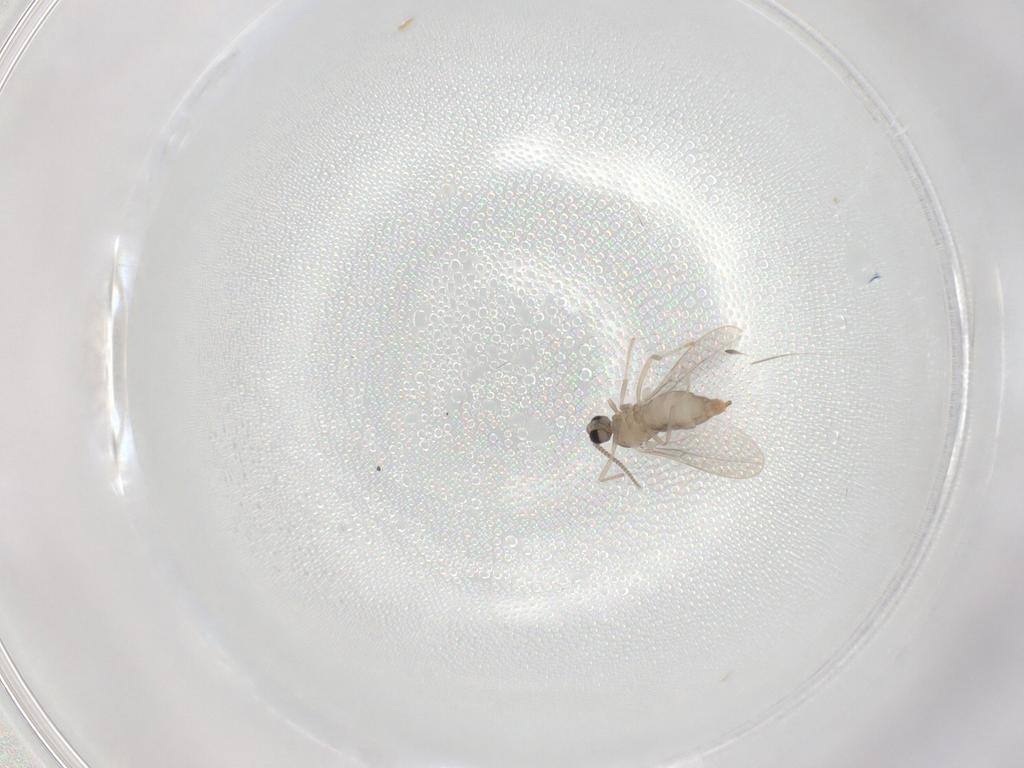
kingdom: Animalia
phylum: Arthropoda
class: Insecta
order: Diptera
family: Cecidomyiidae
